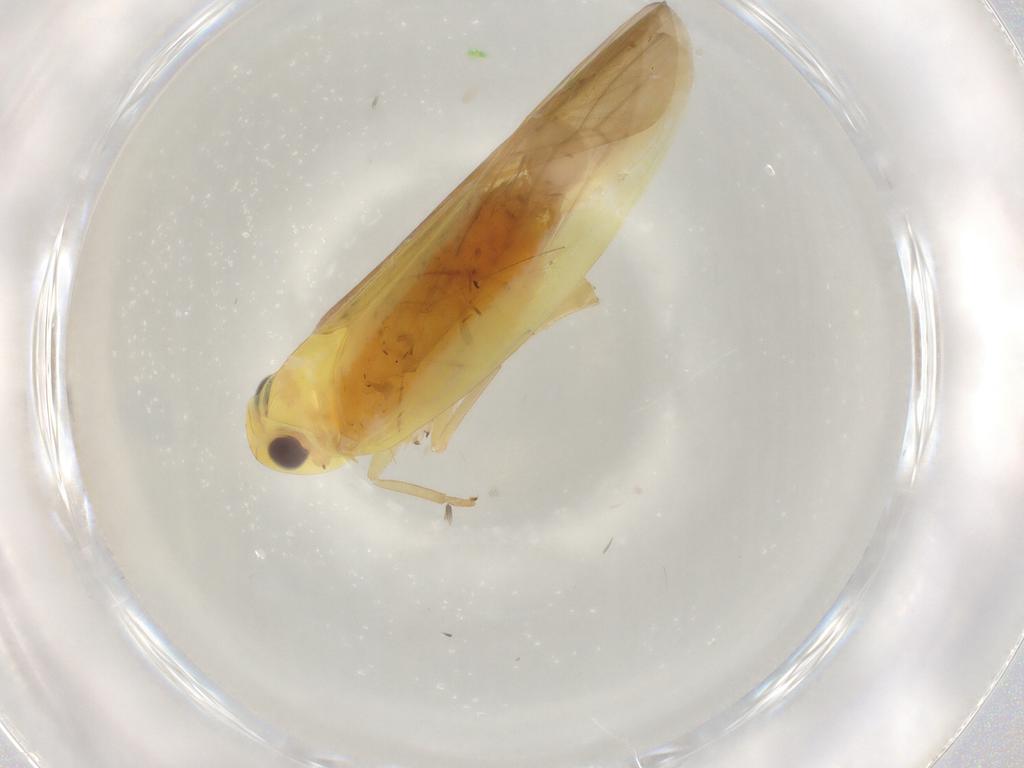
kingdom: Animalia
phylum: Arthropoda
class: Insecta
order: Hemiptera
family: Achilidae
